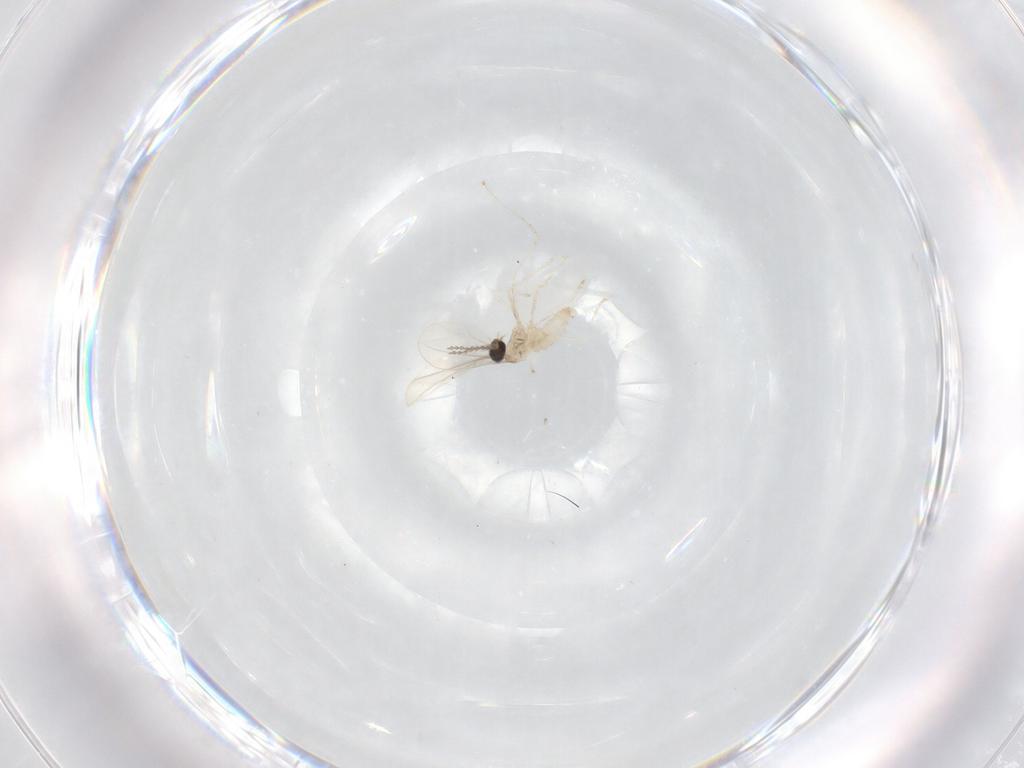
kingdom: Animalia
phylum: Arthropoda
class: Insecta
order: Diptera
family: Cecidomyiidae
